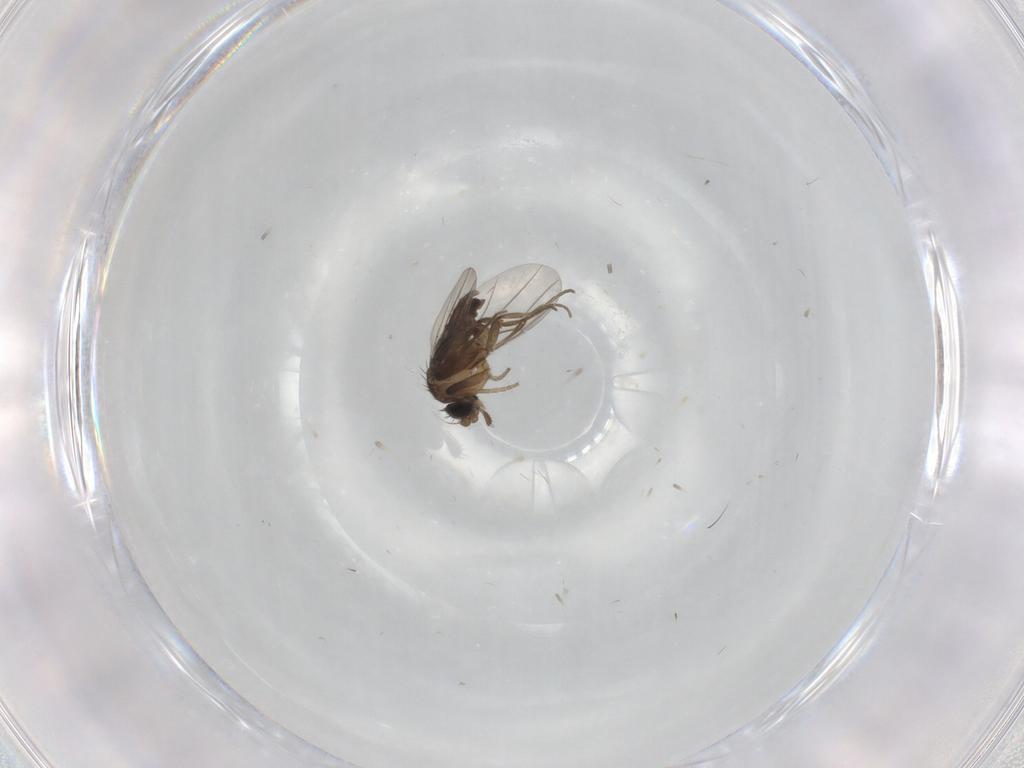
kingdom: Animalia
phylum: Arthropoda
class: Insecta
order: Diptera
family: Phoridae
